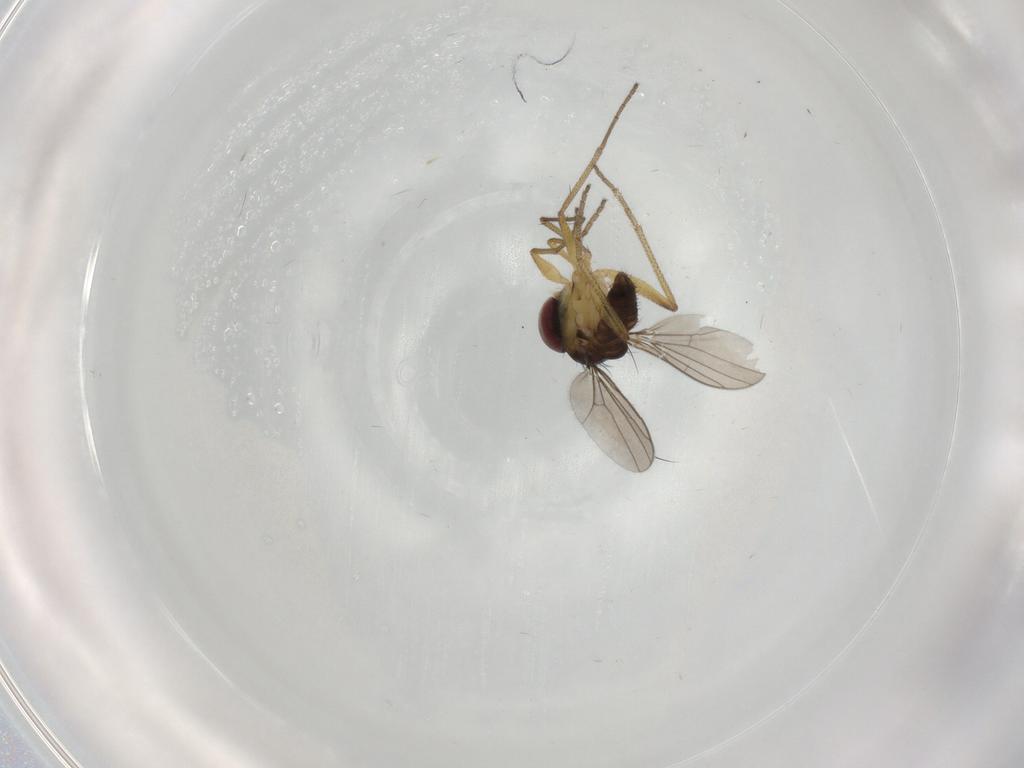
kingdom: Animalia
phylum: Arthropoda
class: Insecta
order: Diptera
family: Dolichopodidae
